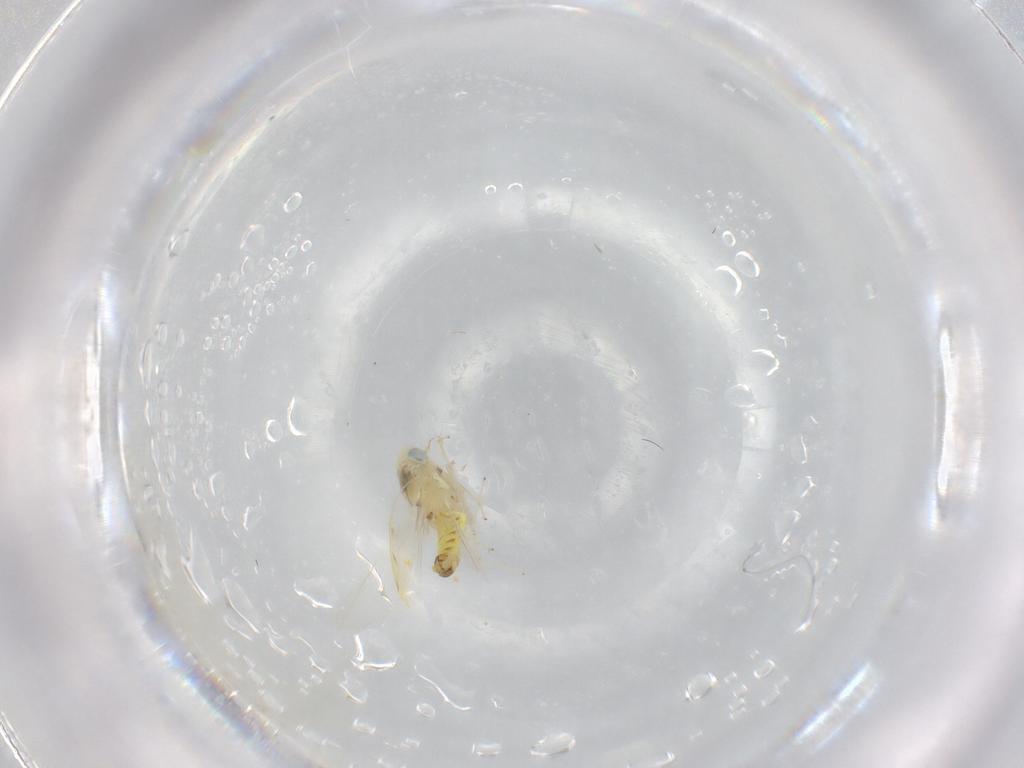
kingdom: Animalia
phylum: Arthropoda
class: Insecta
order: Hemiptera
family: Cicadellidae
